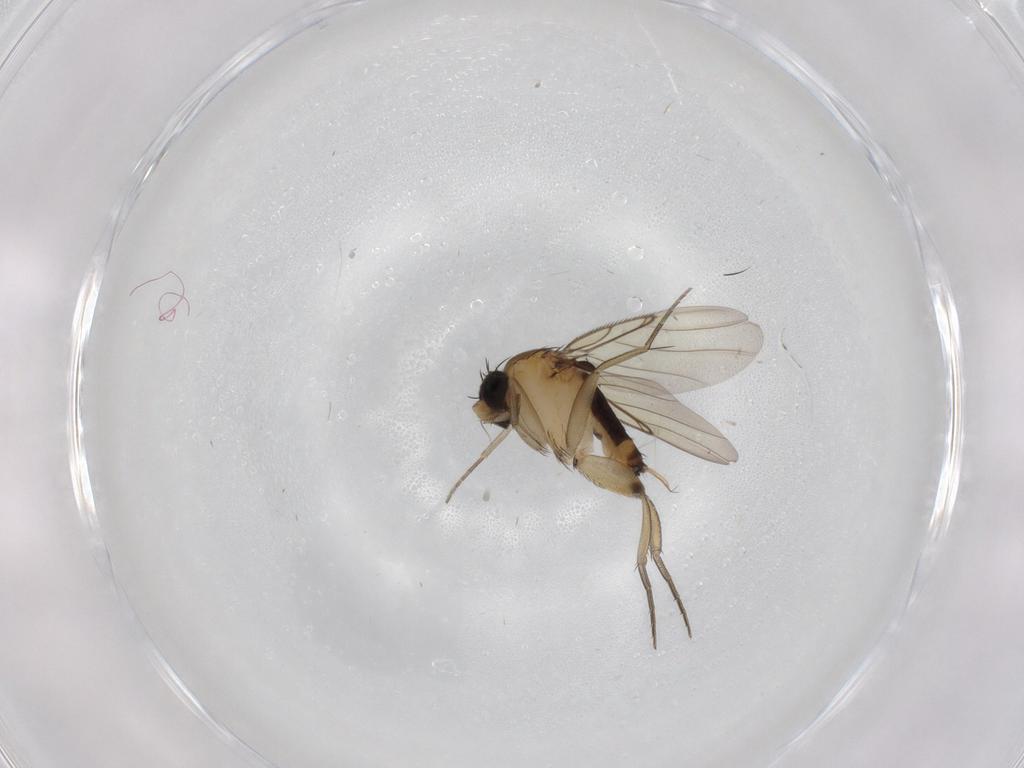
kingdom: Animalia
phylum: Arthropoda
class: Insecta
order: Diptera
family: Phoridae
